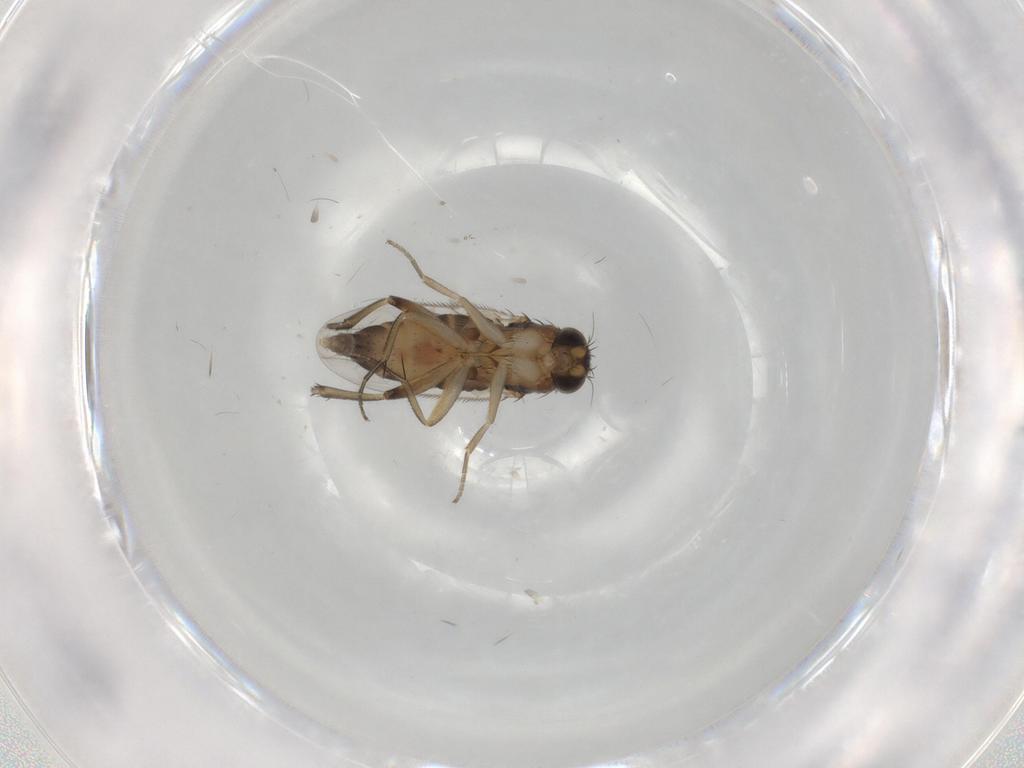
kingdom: Animalia
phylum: Arthropoda
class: Insecta
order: Diptera
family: Phoridae
